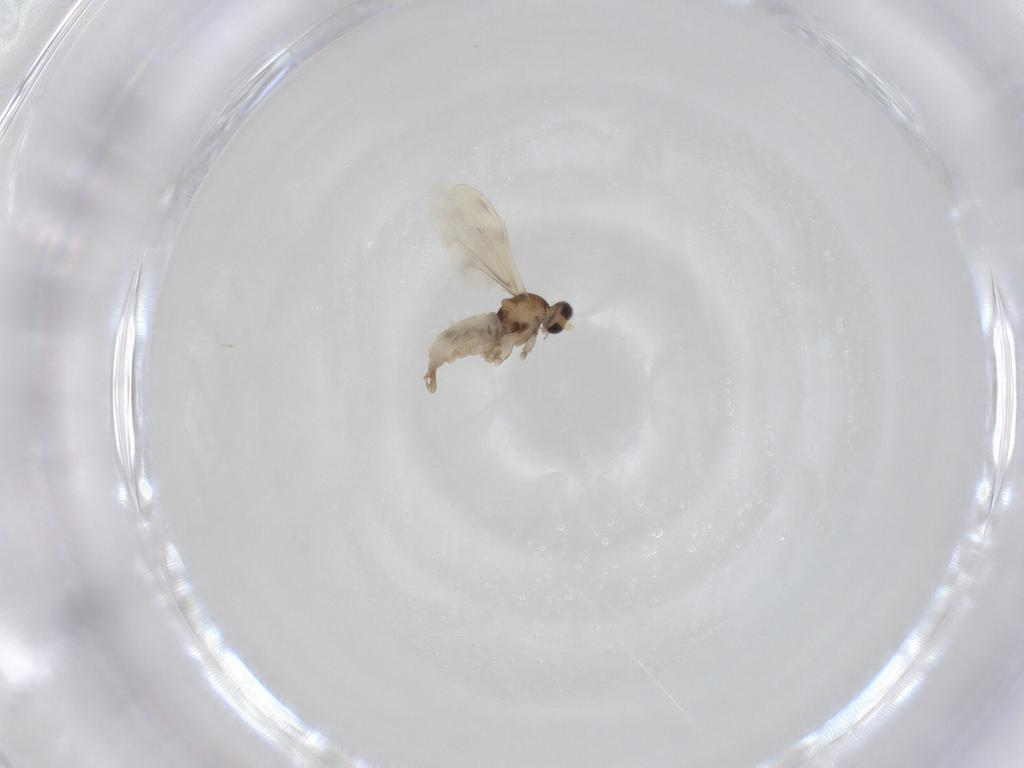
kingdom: Animalia
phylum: Arthropoda
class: Insecta
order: Diptera
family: Cecidomyiidae
